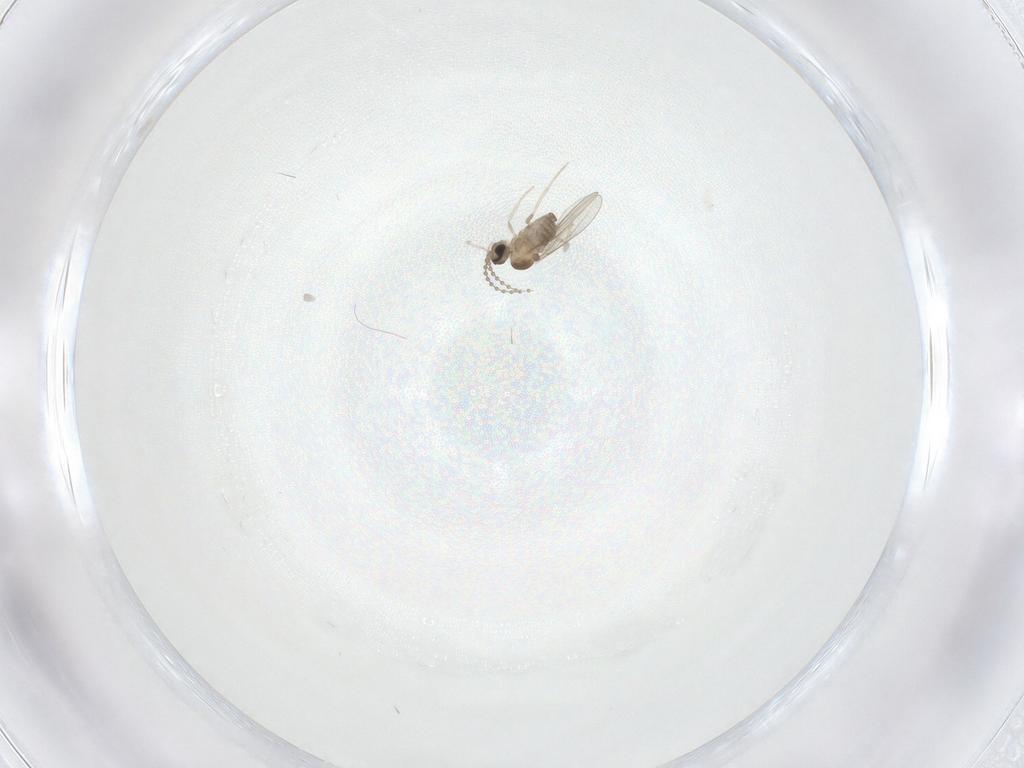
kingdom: Animalia
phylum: Arthropoda
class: Insecta
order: Diptera
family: Cecidomyiidae
